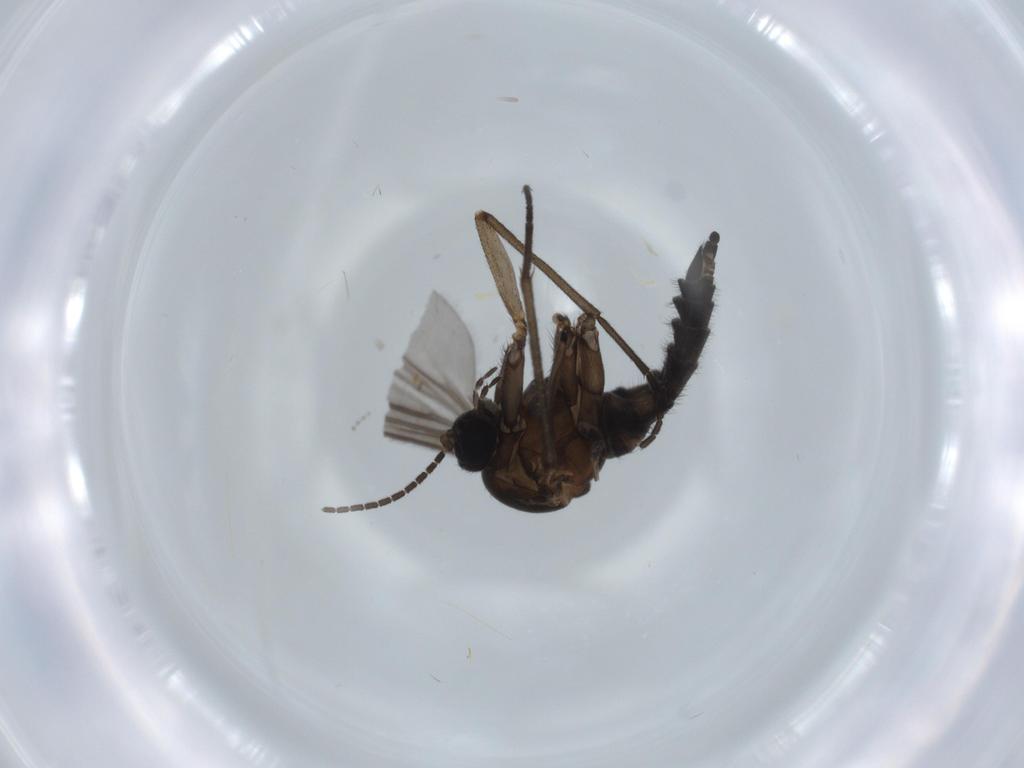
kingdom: Animalia
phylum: Arthropoda
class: Insecta
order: Diptera
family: Sciaridae
